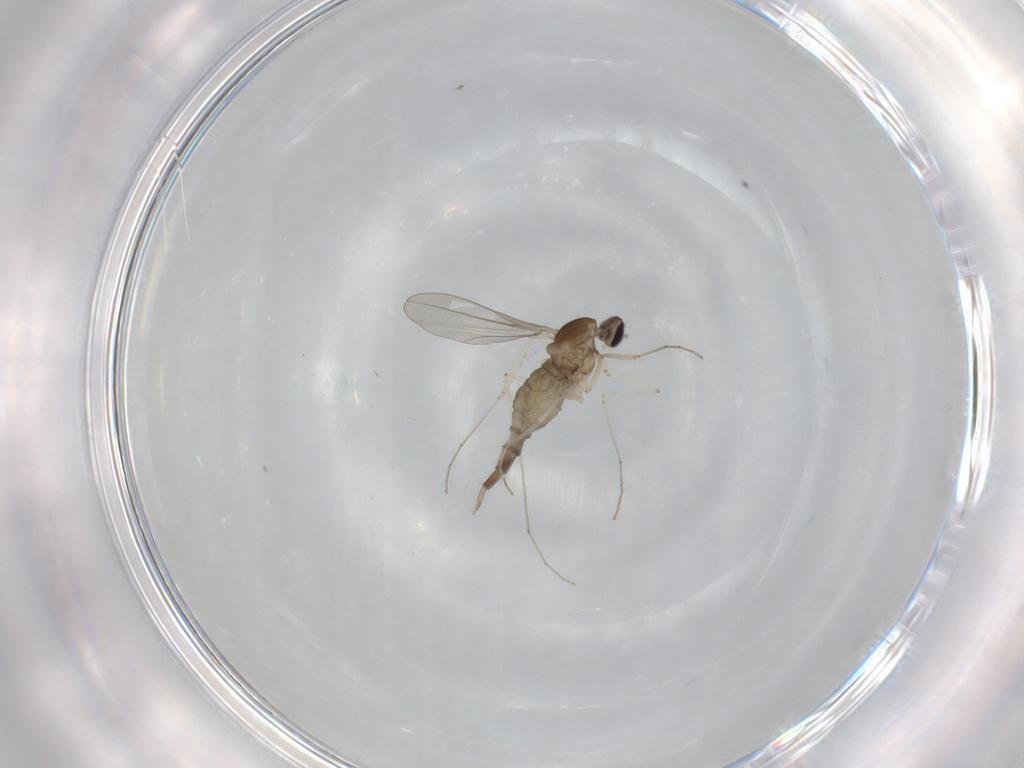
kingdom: Animalia
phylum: Arthropoda
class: Insecta
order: Diptera
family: Cecidomyiidae
